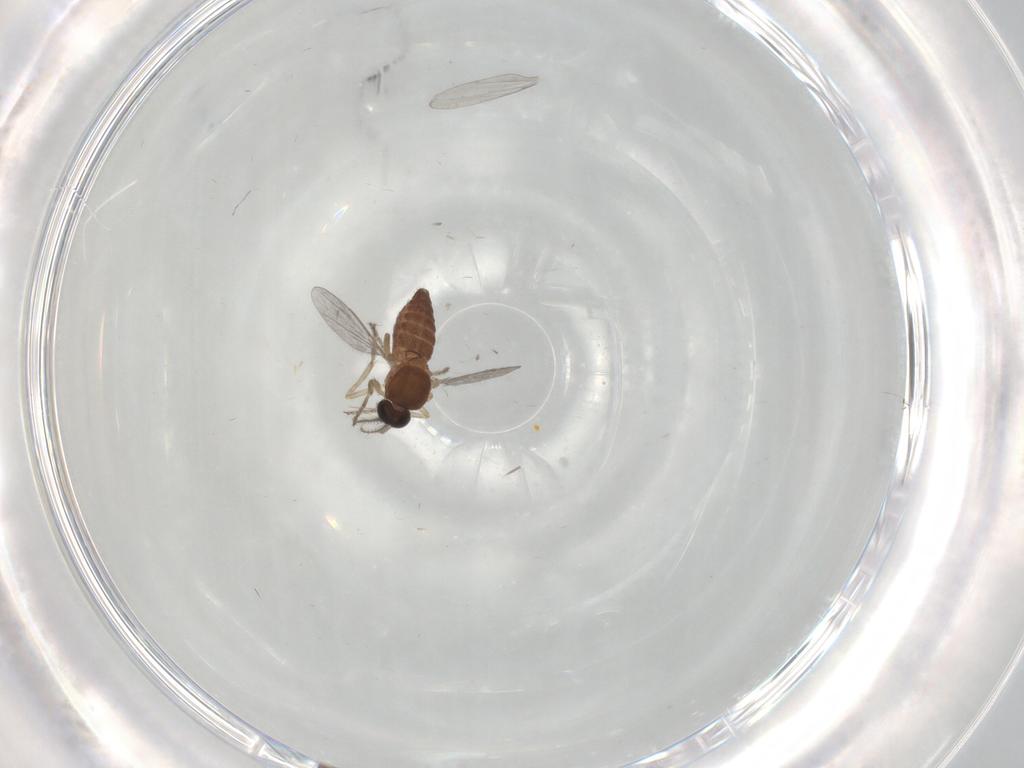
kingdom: Animalia
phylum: Arthropoda
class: Insecta
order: Diptera
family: Ceratopogonidae
